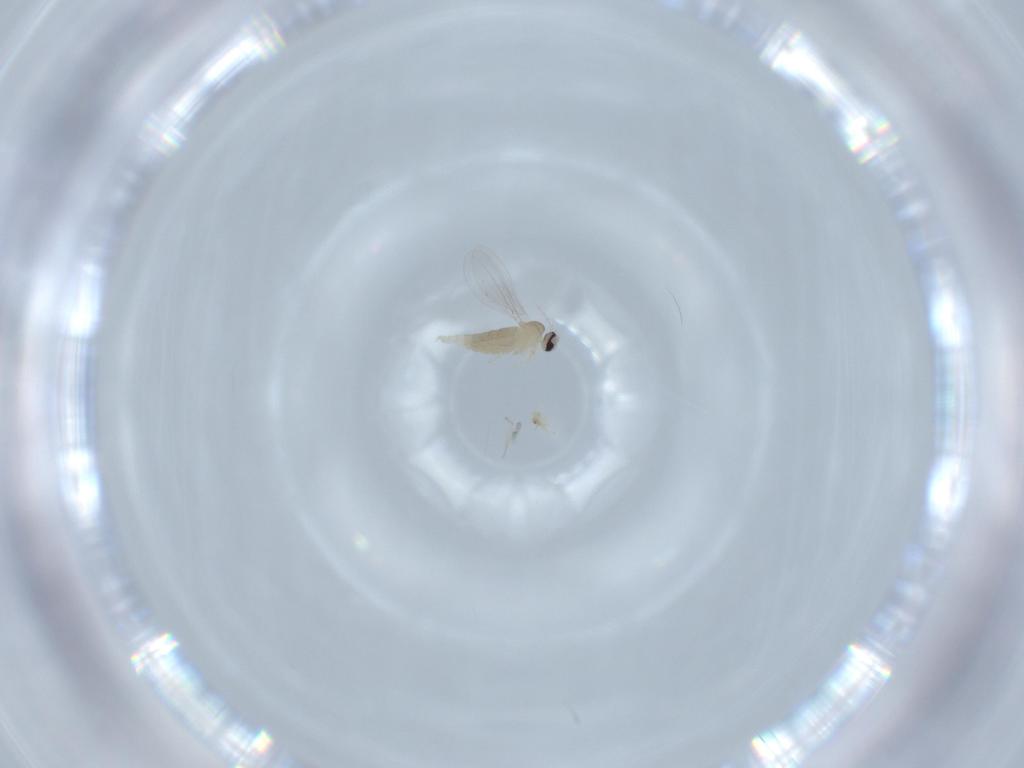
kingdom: Animalia
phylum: Arthropoda
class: Insecta
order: Diptera
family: Cecidomyiidae
